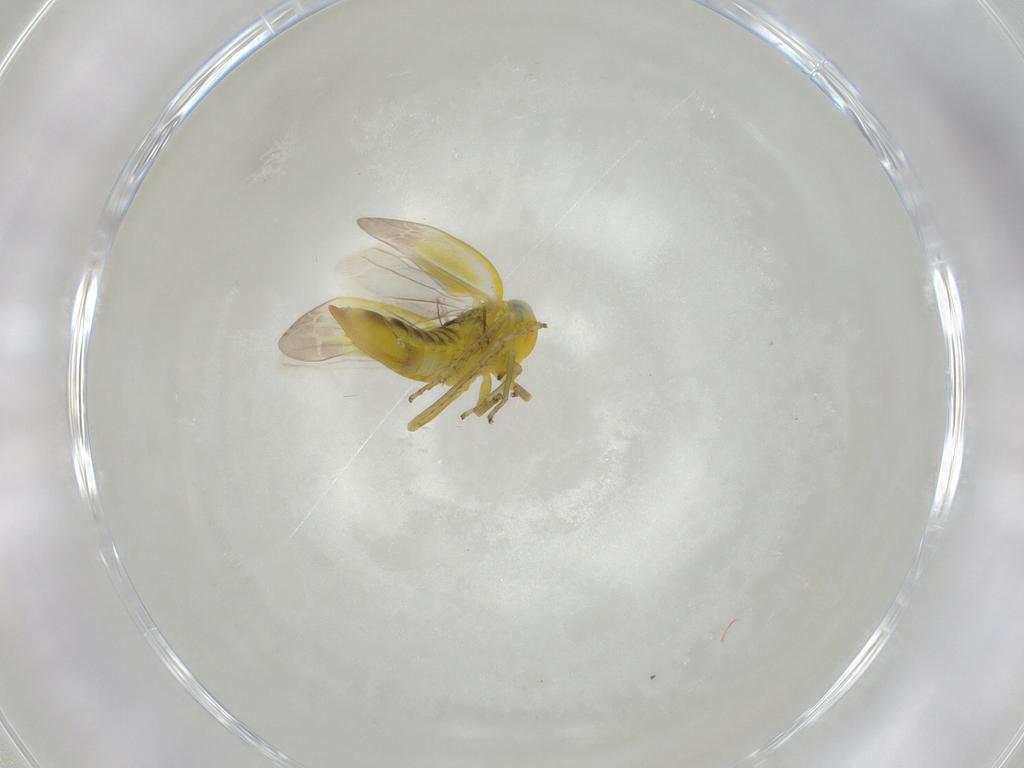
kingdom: Animalia
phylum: Arthropoda
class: Insecta
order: Hemiptera
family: Cicadellidae
